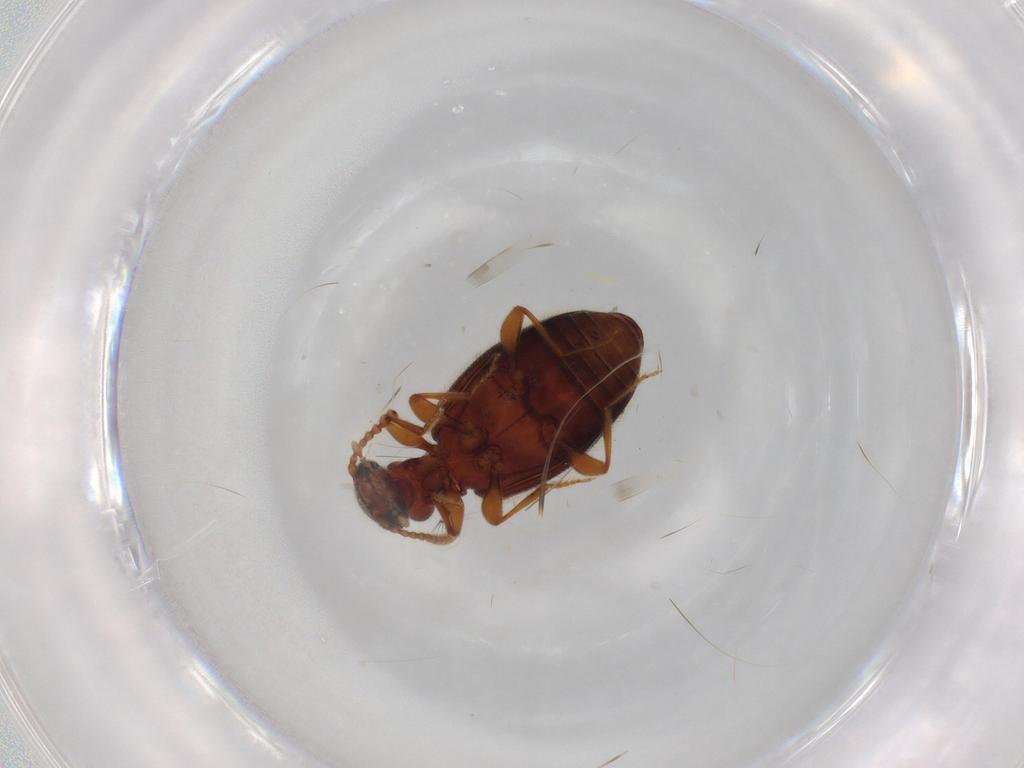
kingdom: Animalia
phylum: Arthropoda
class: Insecta
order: Coleoptera
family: Anthicidae
